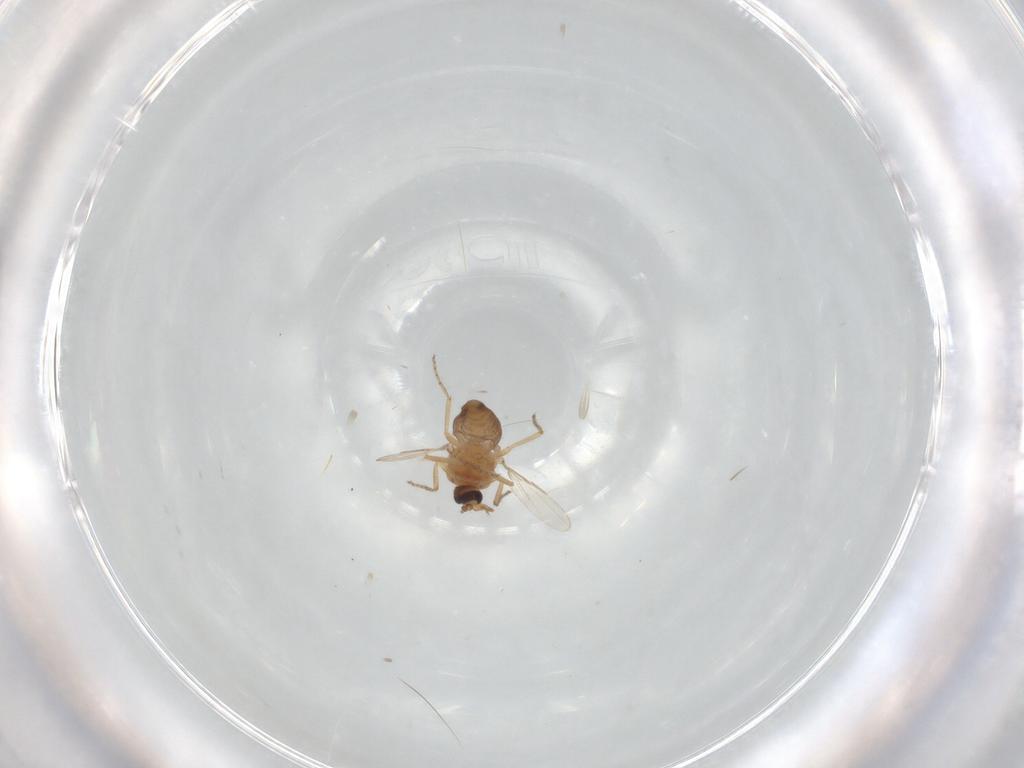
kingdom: Animalia
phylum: Arthropoda
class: Insecta
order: Diptera
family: Ceratopogonidae
